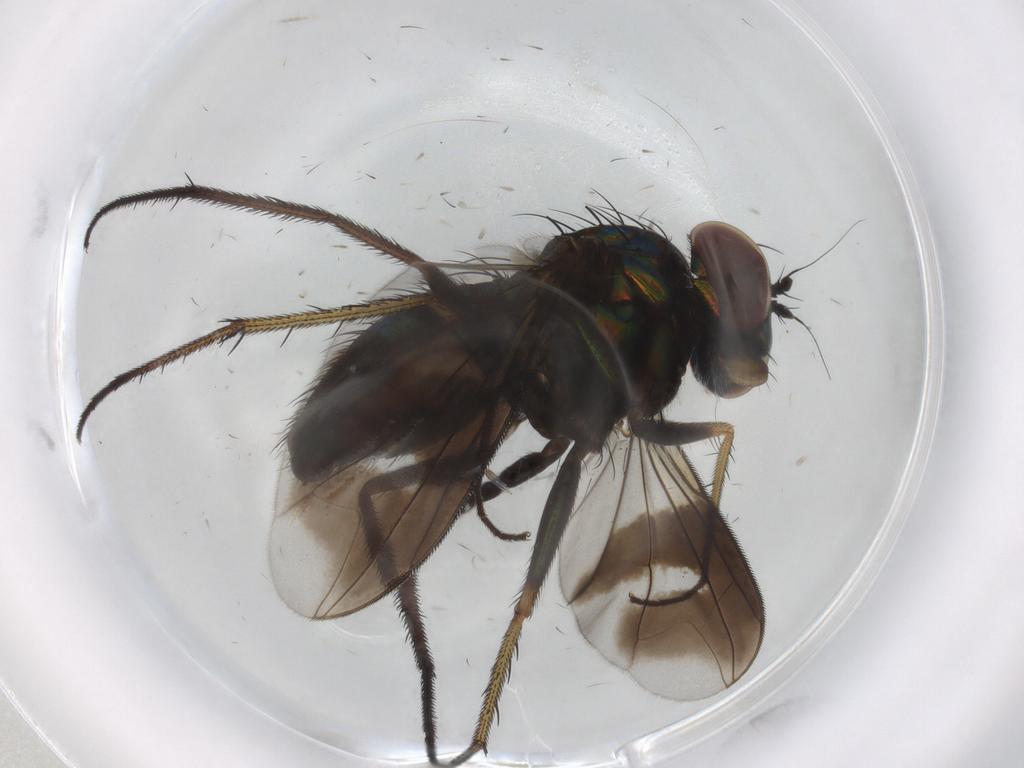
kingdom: Animalia
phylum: Arthropoda
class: Insecta
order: Diptera
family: Dolichopodidae
